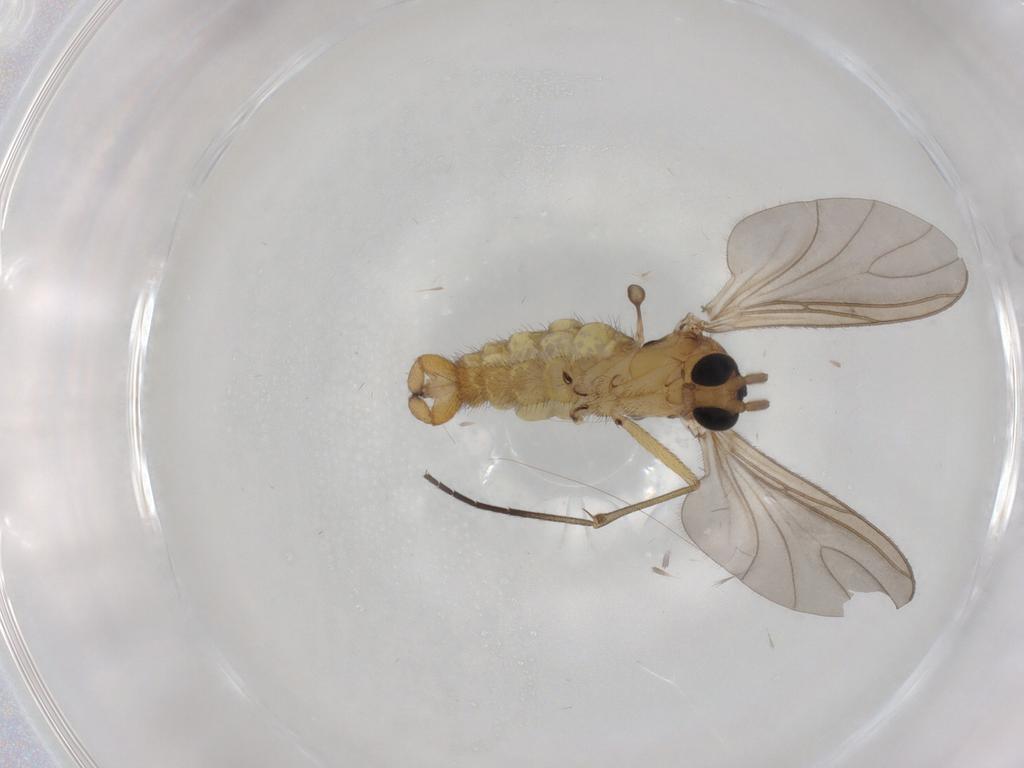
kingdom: Animalia
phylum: Arthropoda
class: Insecta
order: Diptera
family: Sciaridae
